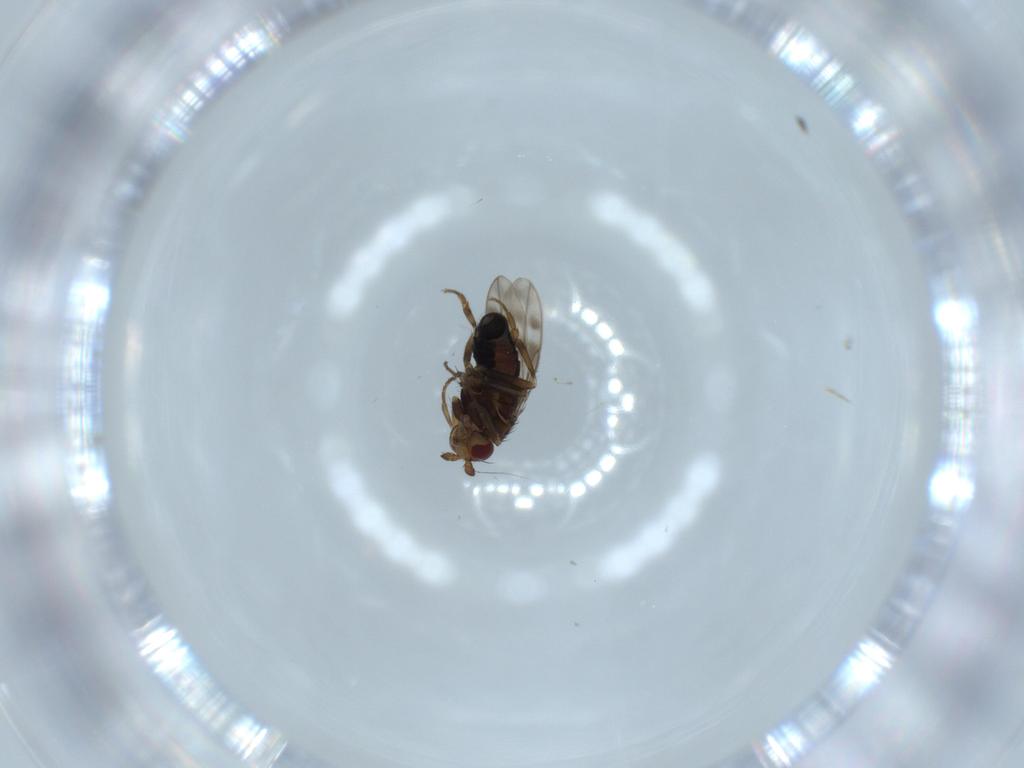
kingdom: Animalia
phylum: Arthropoda
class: Insecta
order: Diptera
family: Sphaeroceridae
